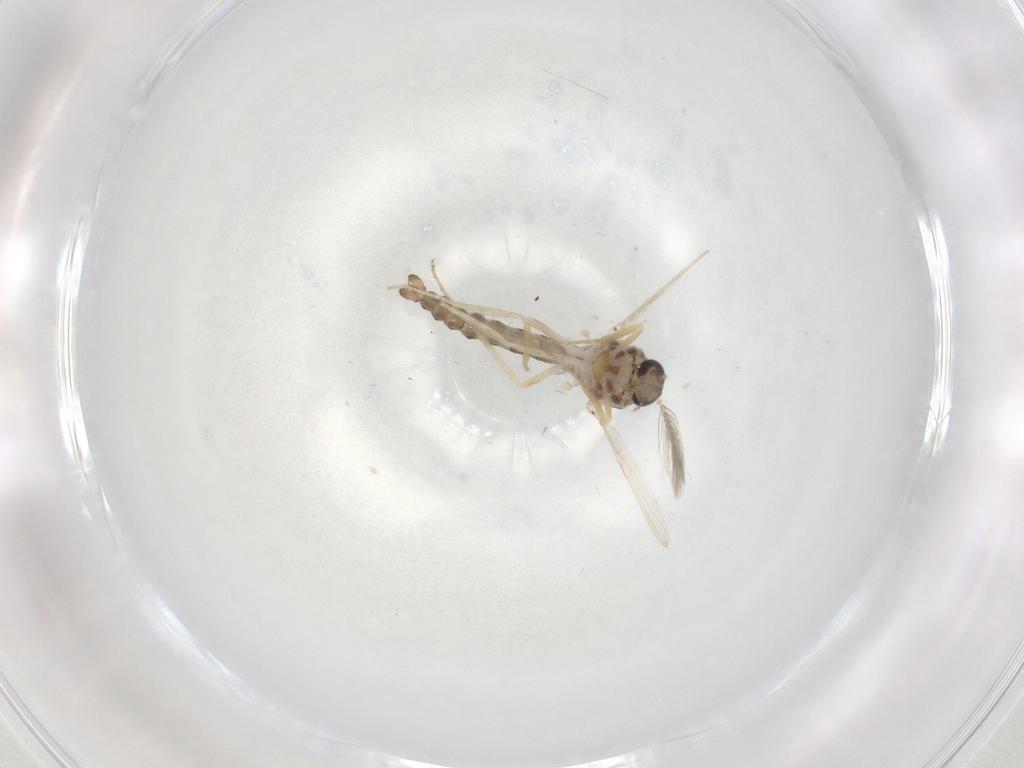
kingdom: Animalia
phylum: Arthropoda
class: Insecta
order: Diptera
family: Ceratopogonidae
